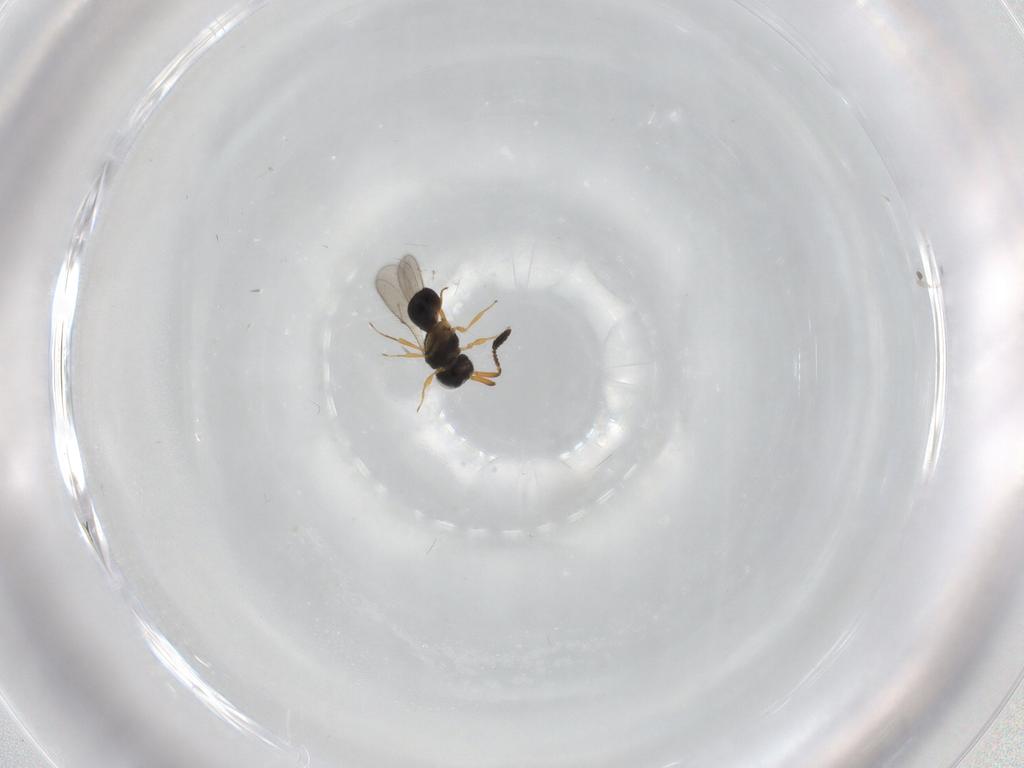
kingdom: Animalia
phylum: Arthropoda
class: Insecta
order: Hymenoptera
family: Scelionidae
